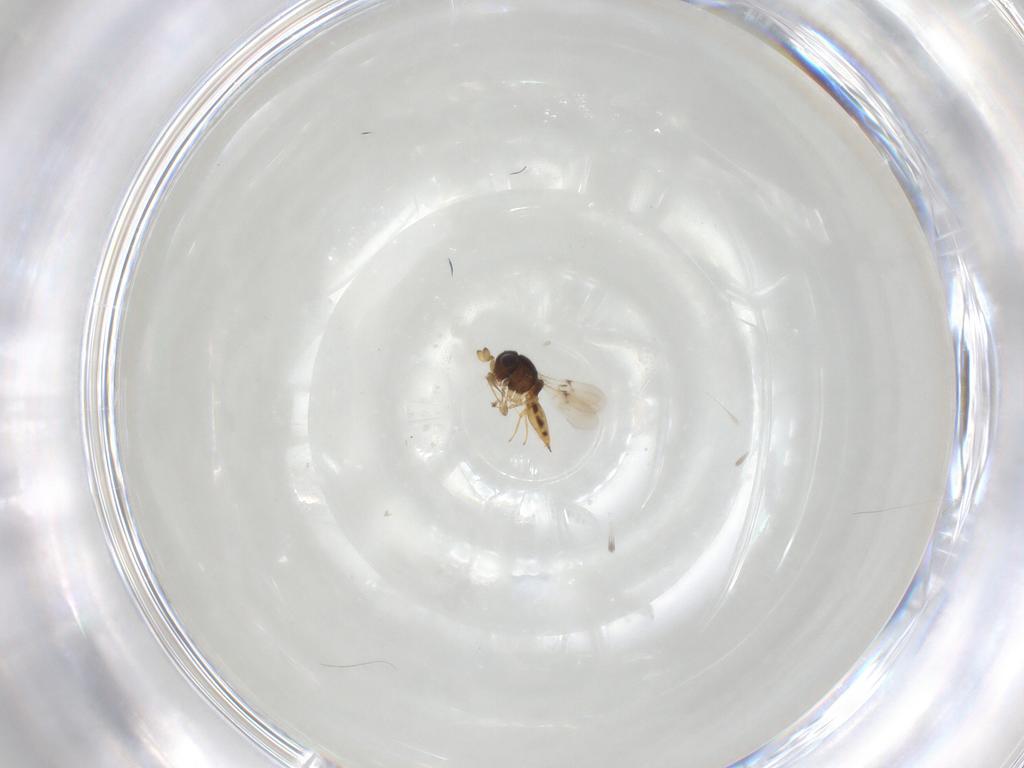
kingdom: Animalia
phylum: Arthropoda
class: Insecta
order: Hymenoptera
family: Scelionidae
